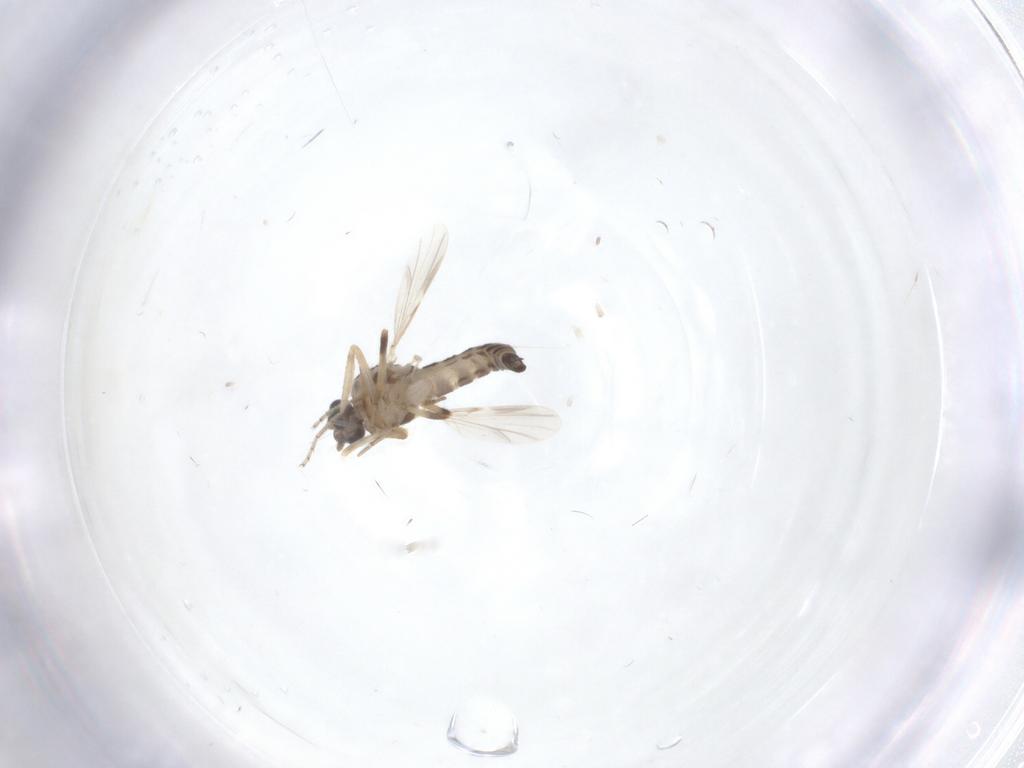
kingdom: Animalia
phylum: Arthropoda
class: Insecta
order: Diptera
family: Ceratopogonidae
